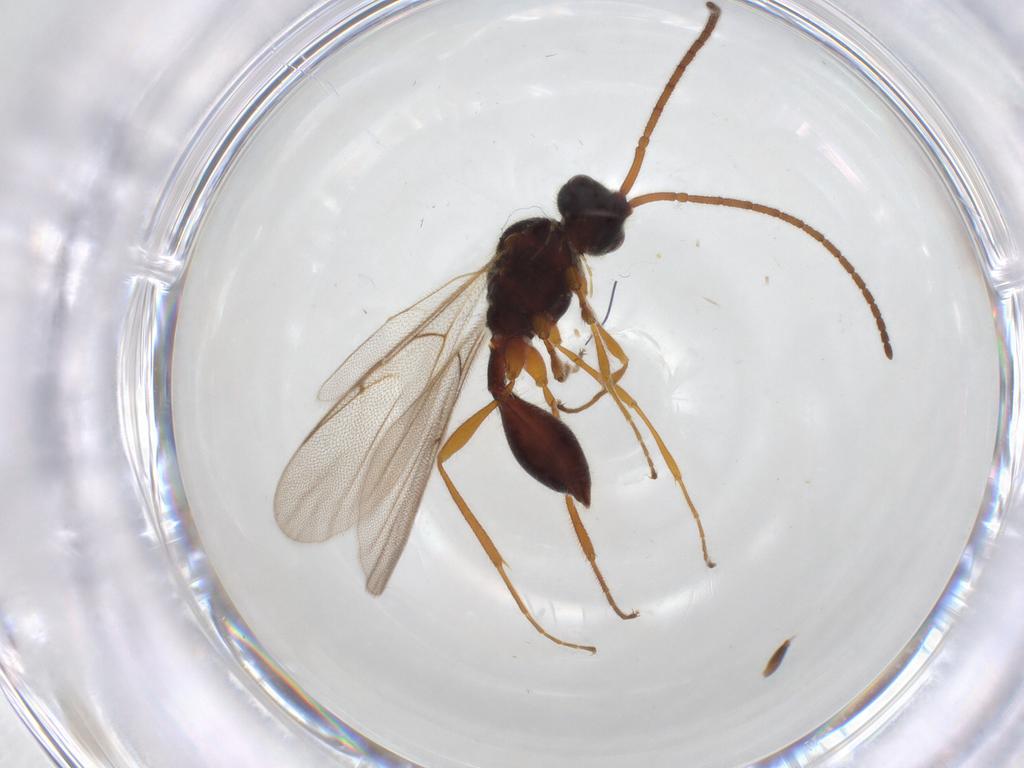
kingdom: Animalia
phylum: Arthropoda
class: Insecta
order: Hymenoptera
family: Diapriidae
